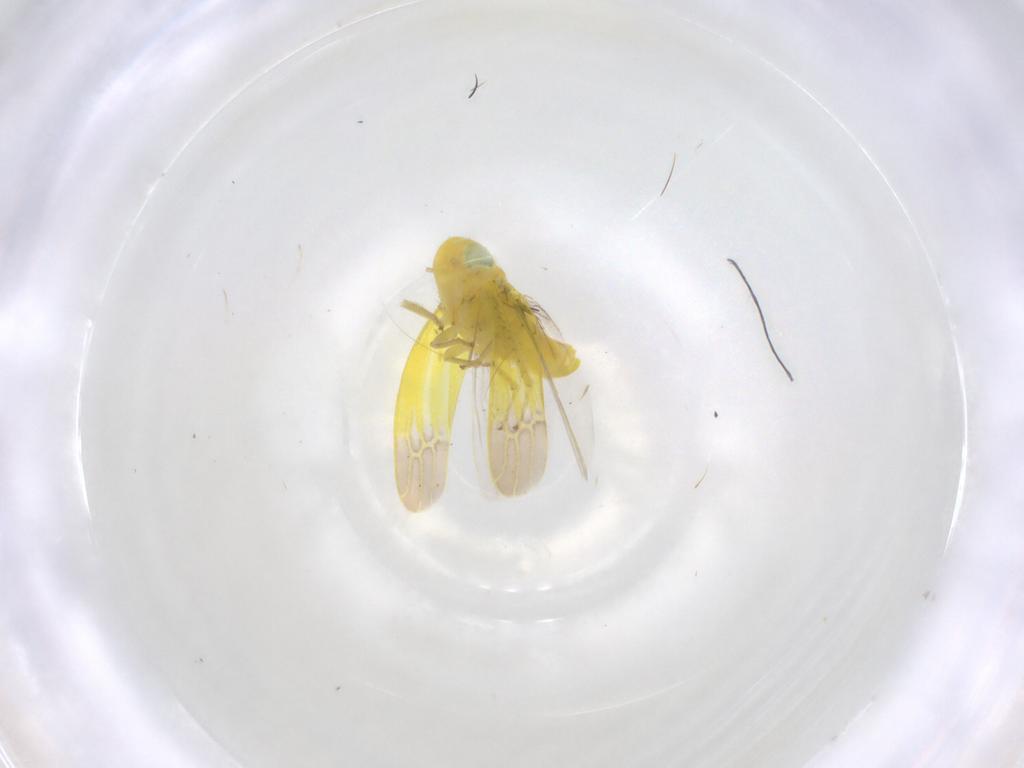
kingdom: Animalia
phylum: Arthropoda
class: Insecta
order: Hemiptera
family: Cicadellidae
